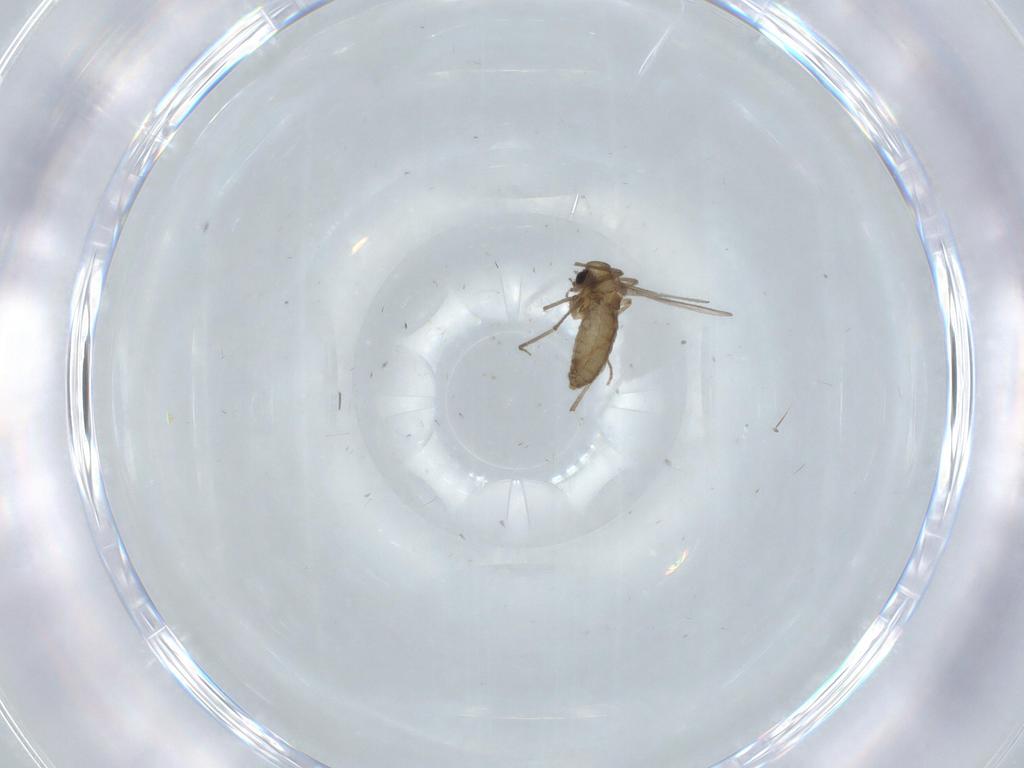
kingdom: Animalia
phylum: Arthropoda
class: Insecta
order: Diptera
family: Chironomidae
